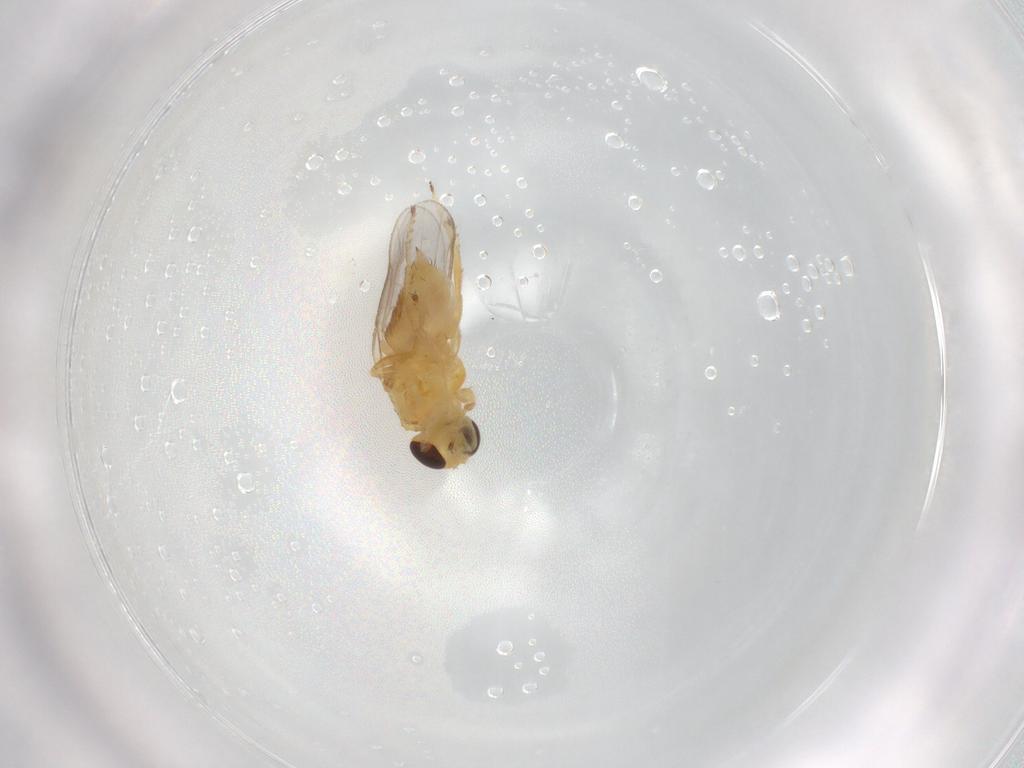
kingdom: Animalia
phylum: Arthropoda
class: Insecta
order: Diptera
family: Chloropidae
